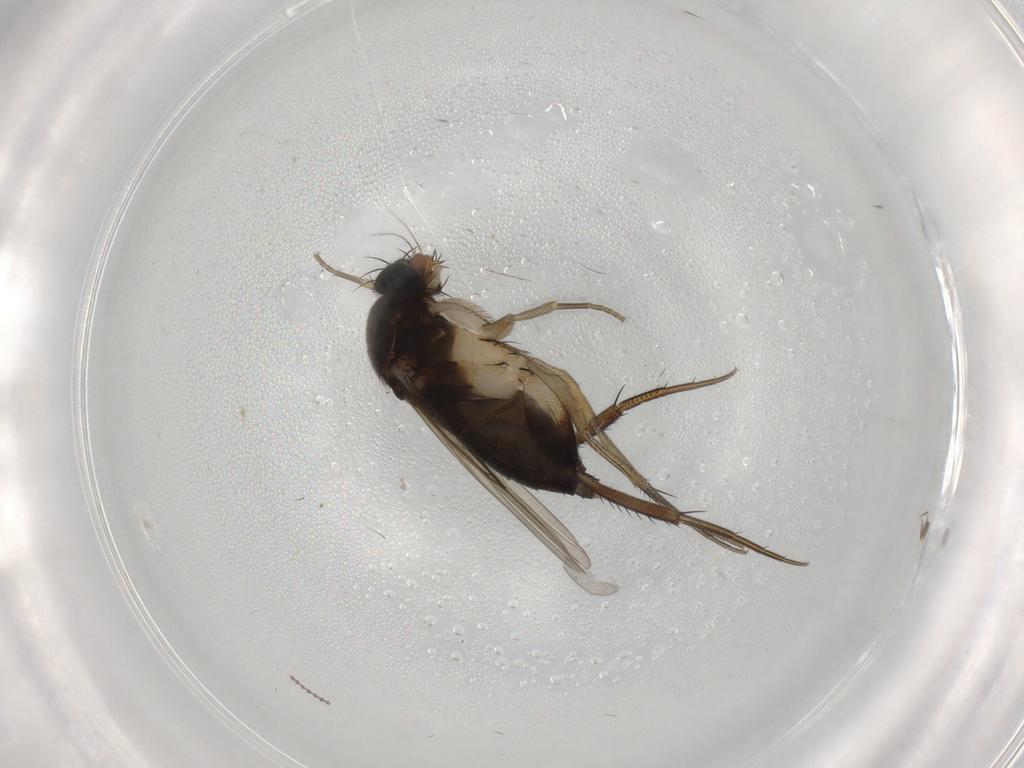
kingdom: Animalia
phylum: Arthropoda
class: Insecta
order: Diptera
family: Phoridae
